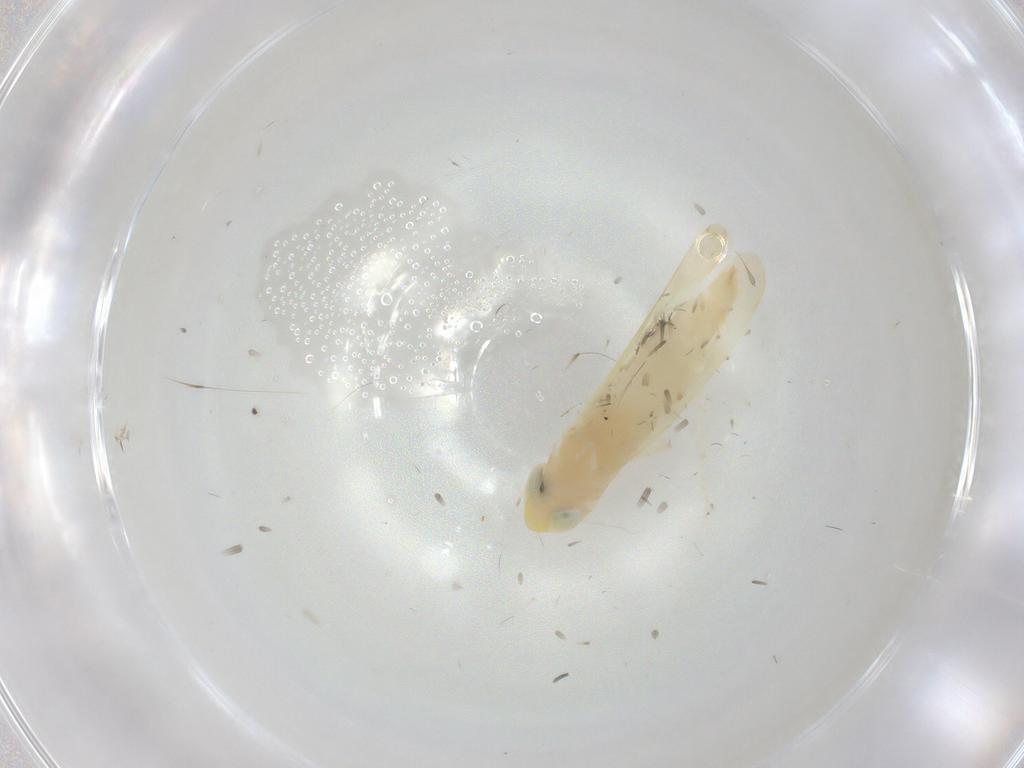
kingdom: Animalia
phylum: Arthropoda
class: Insecta
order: Hemiptera
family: Cicadellidae
